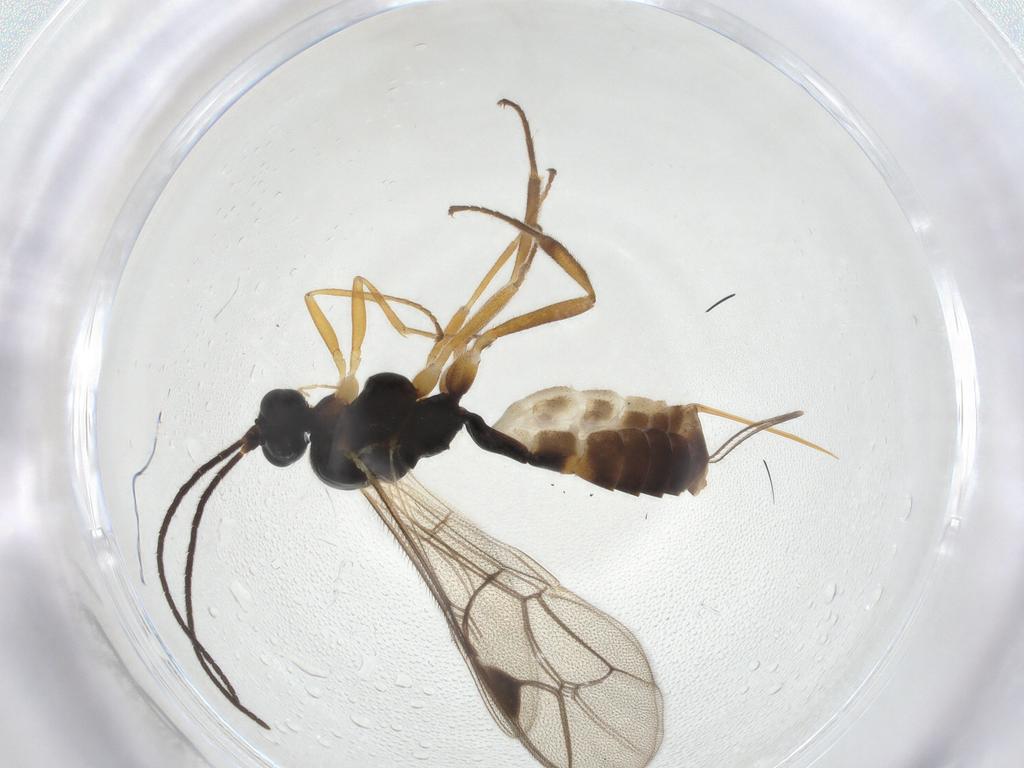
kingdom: Animalia
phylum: Arthropoda
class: Insecta
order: Hymenoptera
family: Ichneumonidae
